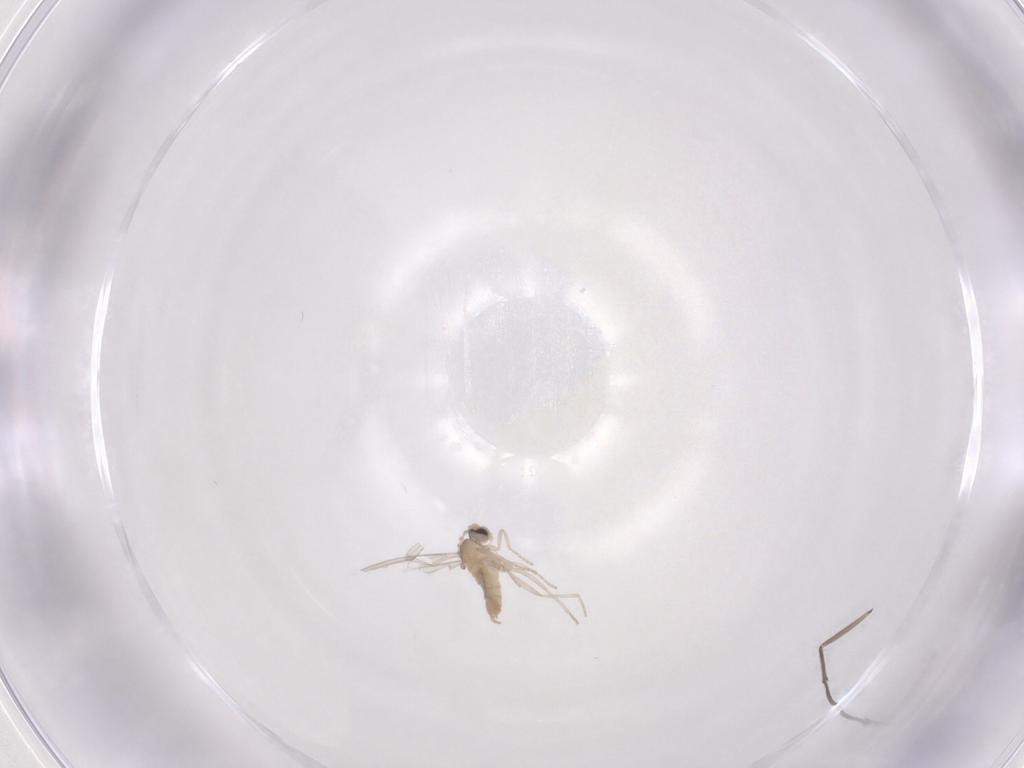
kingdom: Animalia
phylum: Arthropoda
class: Insecta
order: Diptera
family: Cecidomyiidae
